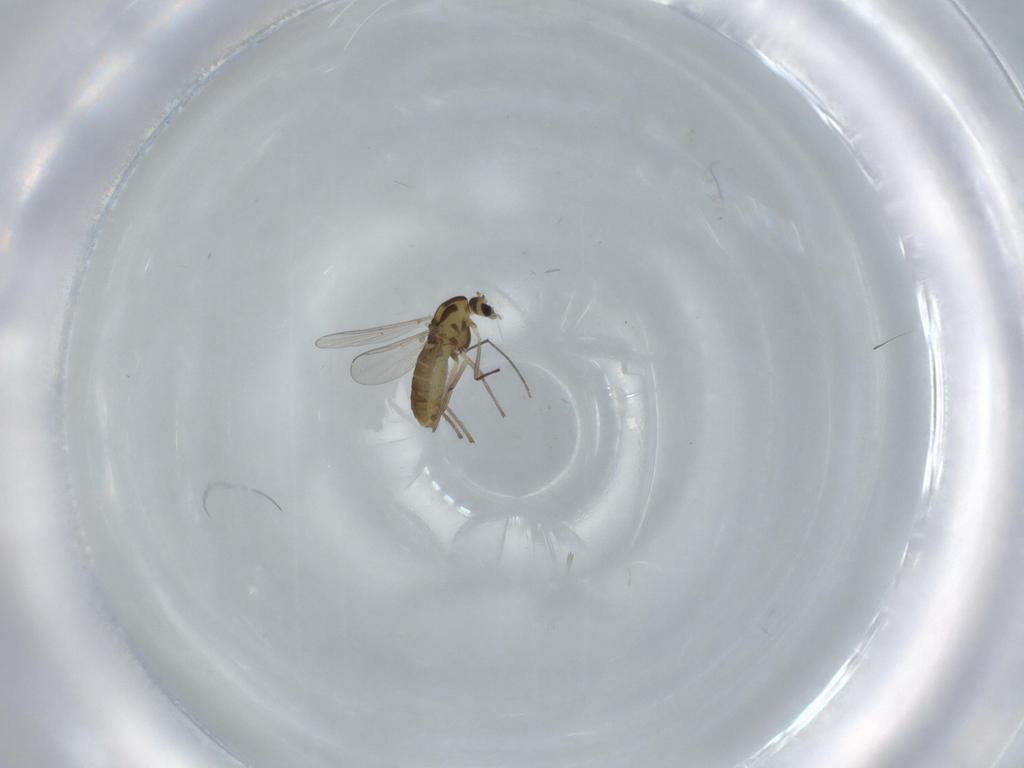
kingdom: Animalia
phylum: Arthropoda
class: Insecta
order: Diptera
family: Chironomidae
